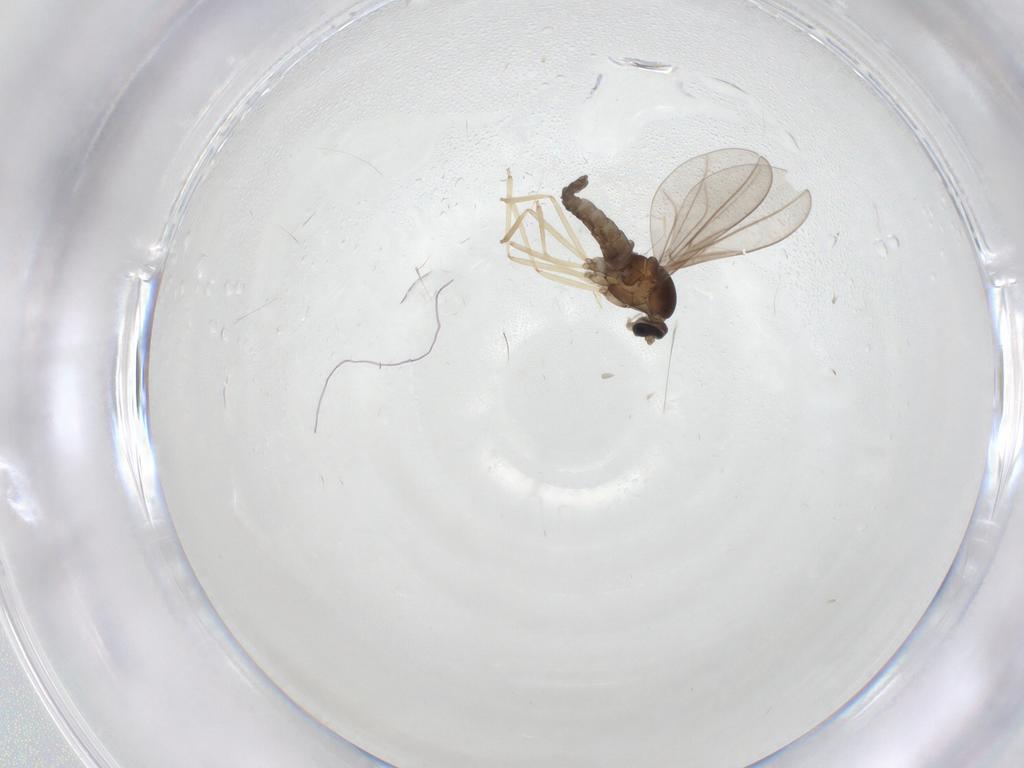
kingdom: Animalia
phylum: Arthropoda
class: Insecta
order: Diptera
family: Cecidomyiidae
